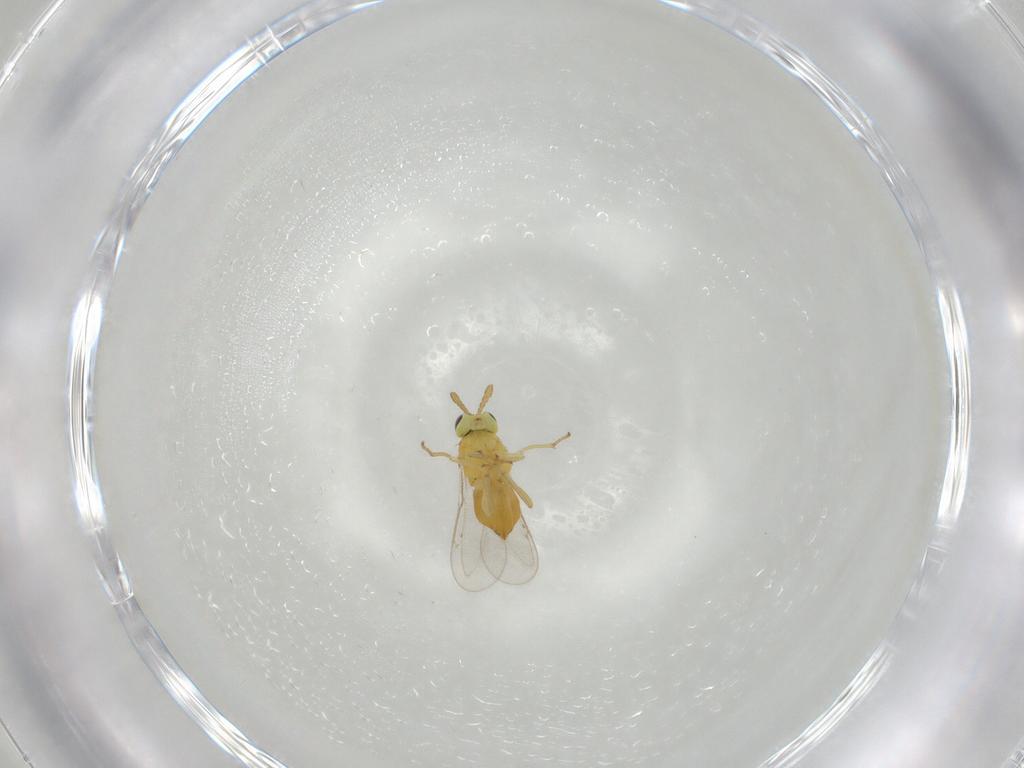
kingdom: Animalia
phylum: Arthropoda
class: Insecta
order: Hymenoptera
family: Aphelinidae
